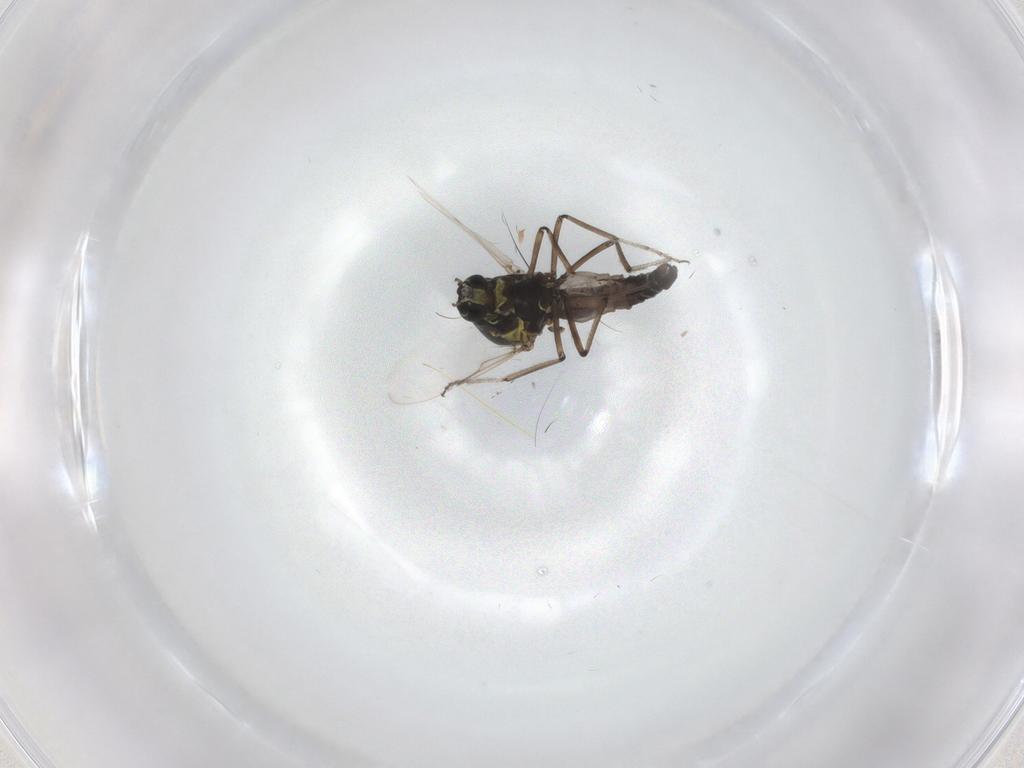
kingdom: Animalia
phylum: Arthropoda
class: Insecta
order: Diptera
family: Ceratopogonidae
